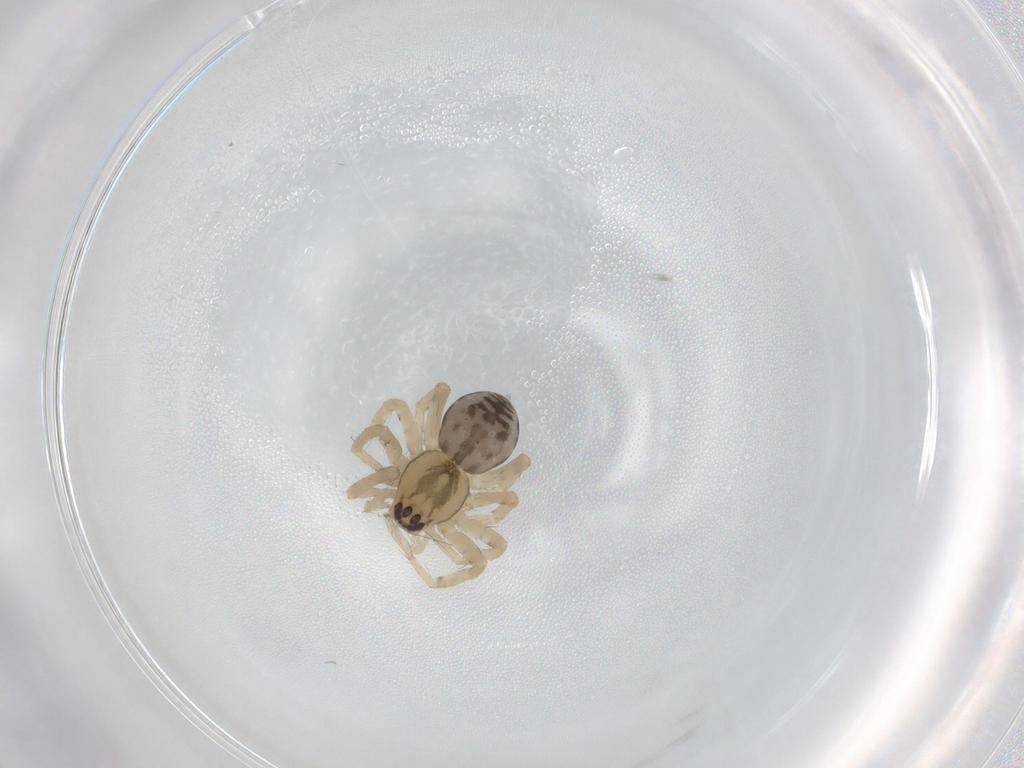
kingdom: Animalia
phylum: Arthropoda
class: Arachnida
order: Araneae
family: Amaurobiidae
